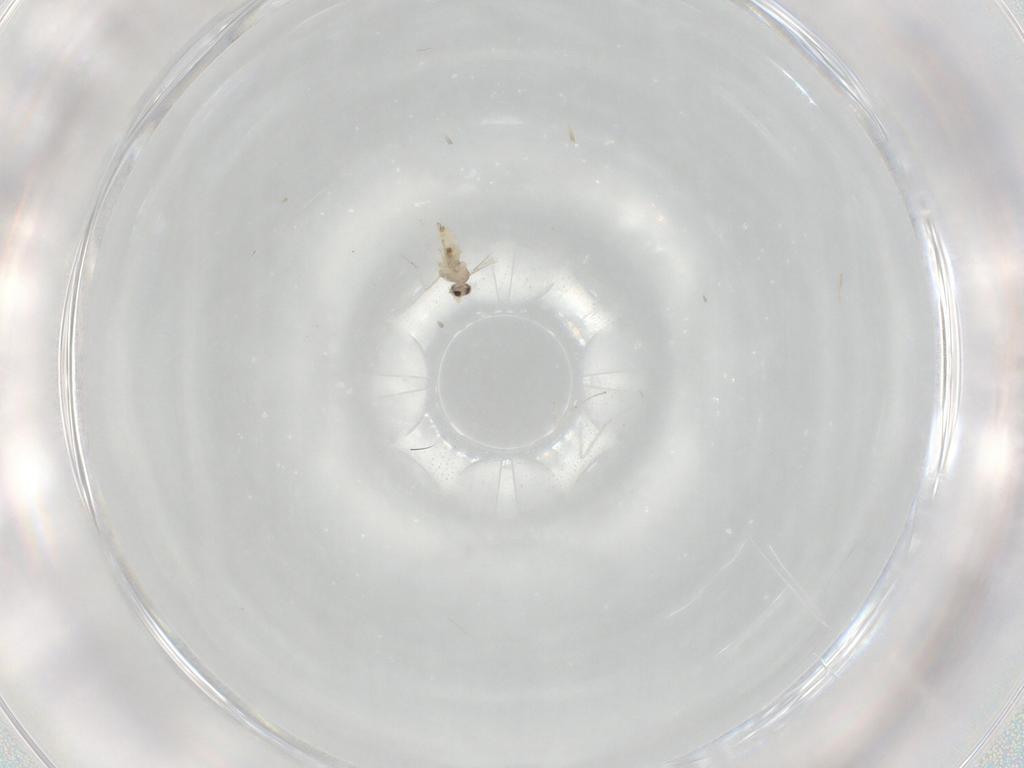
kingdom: Animalia
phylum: Arthropoda
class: Insecta
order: Diptera
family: Cecidomyiidae
